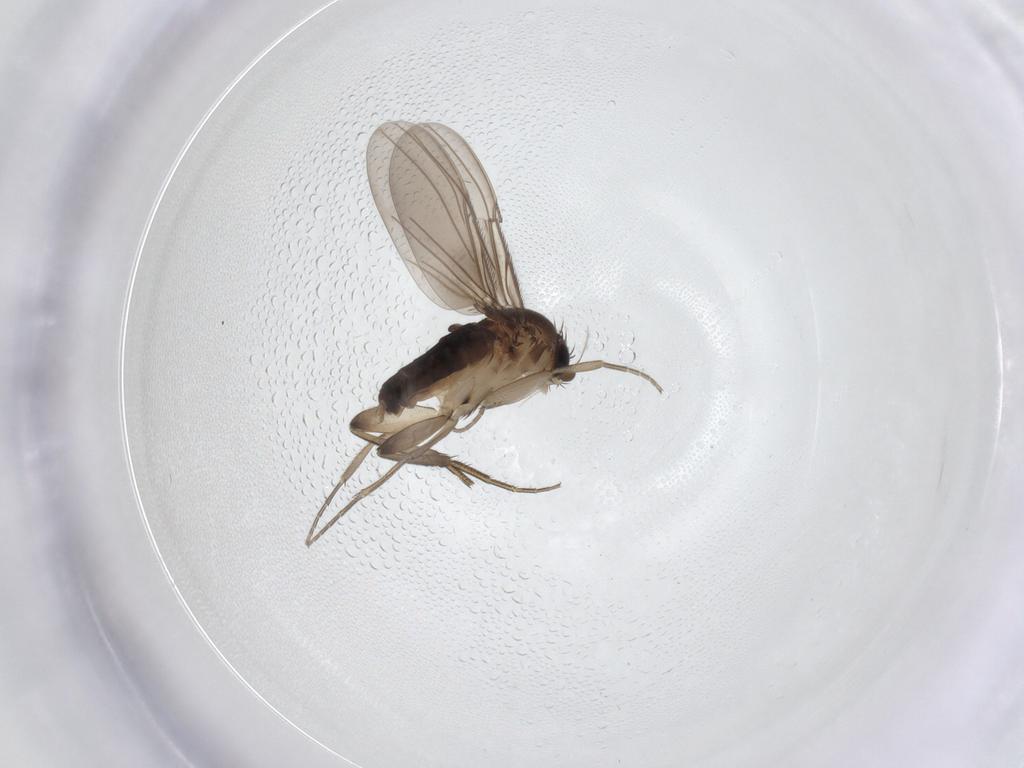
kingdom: Animalia
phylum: Arthropoda
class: Insecta
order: Diptera
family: Phoridae
